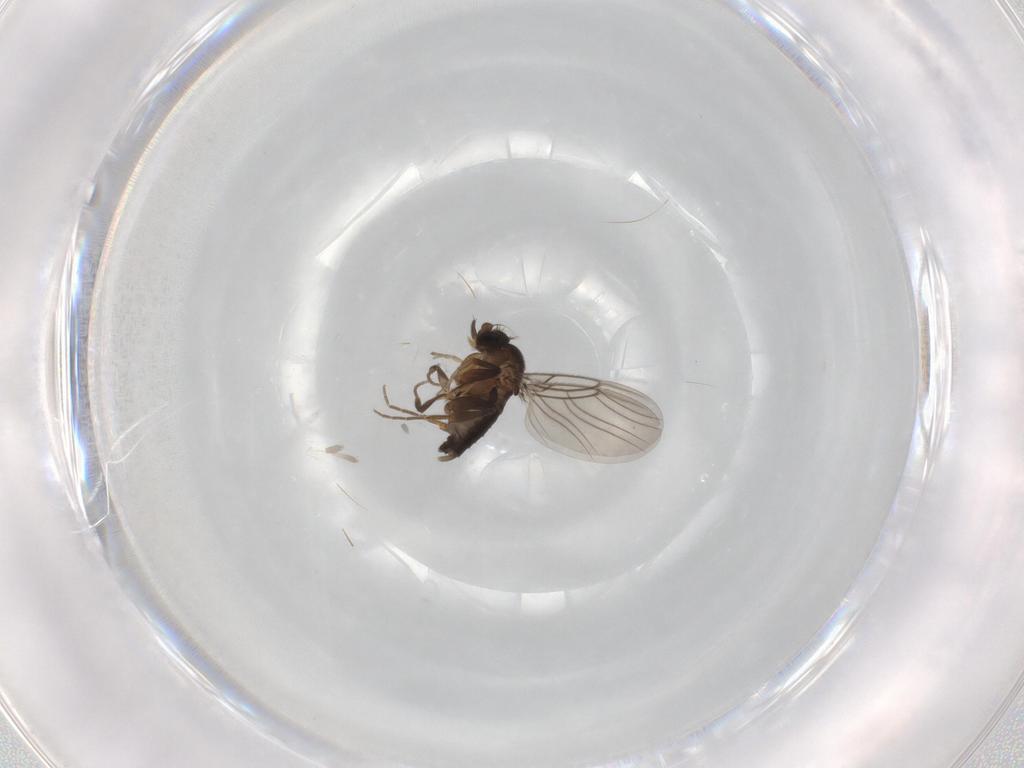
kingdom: Animalia
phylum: Arthropoda
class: Insecta
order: Diptera
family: Phoridae
